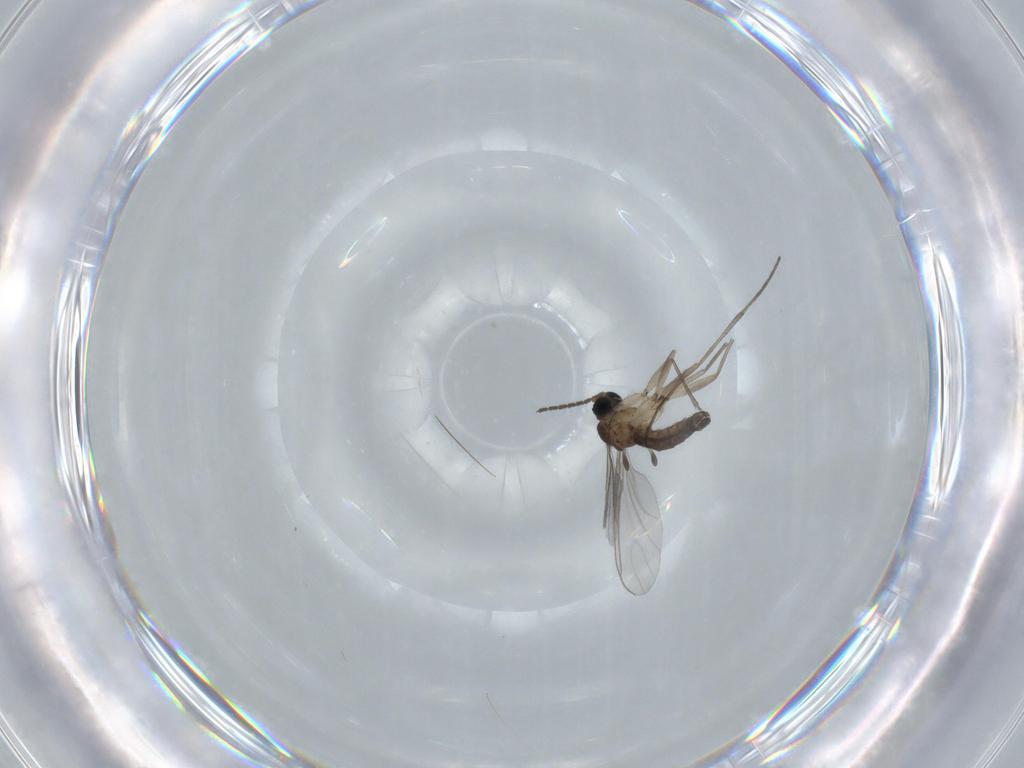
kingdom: Animalia
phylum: Arthropoda
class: Insecta
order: Diptera
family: Sciaridae
